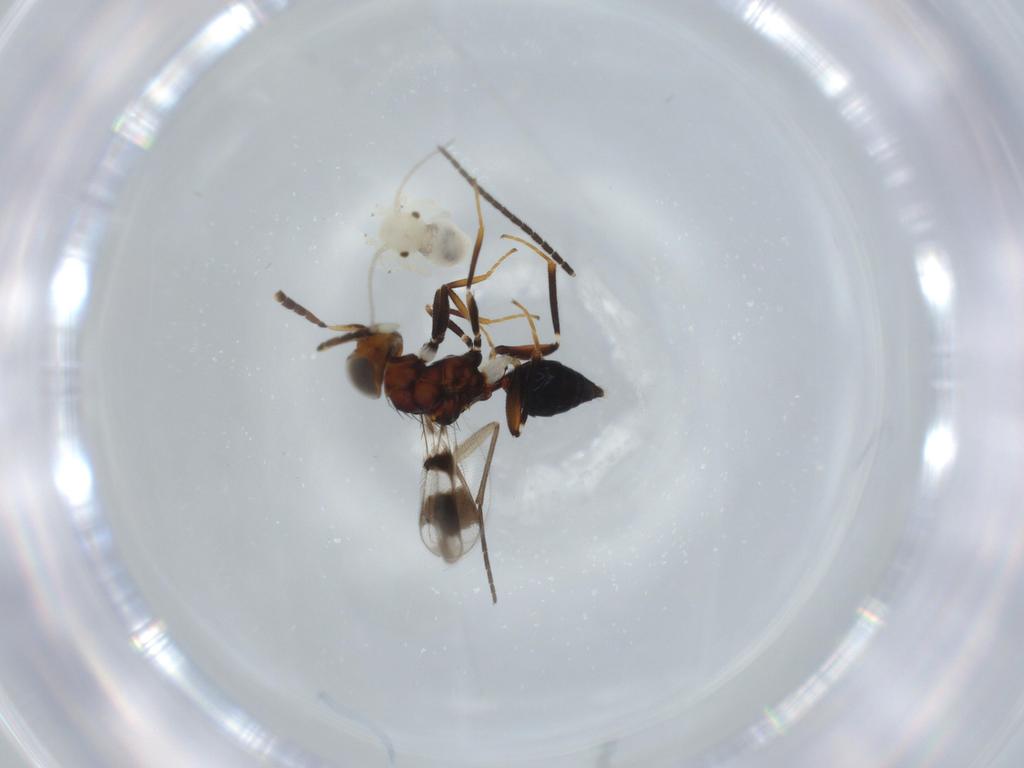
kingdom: Animalia
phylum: Arthropoda
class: Insecta
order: Psocodea
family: Caeciliusidae
